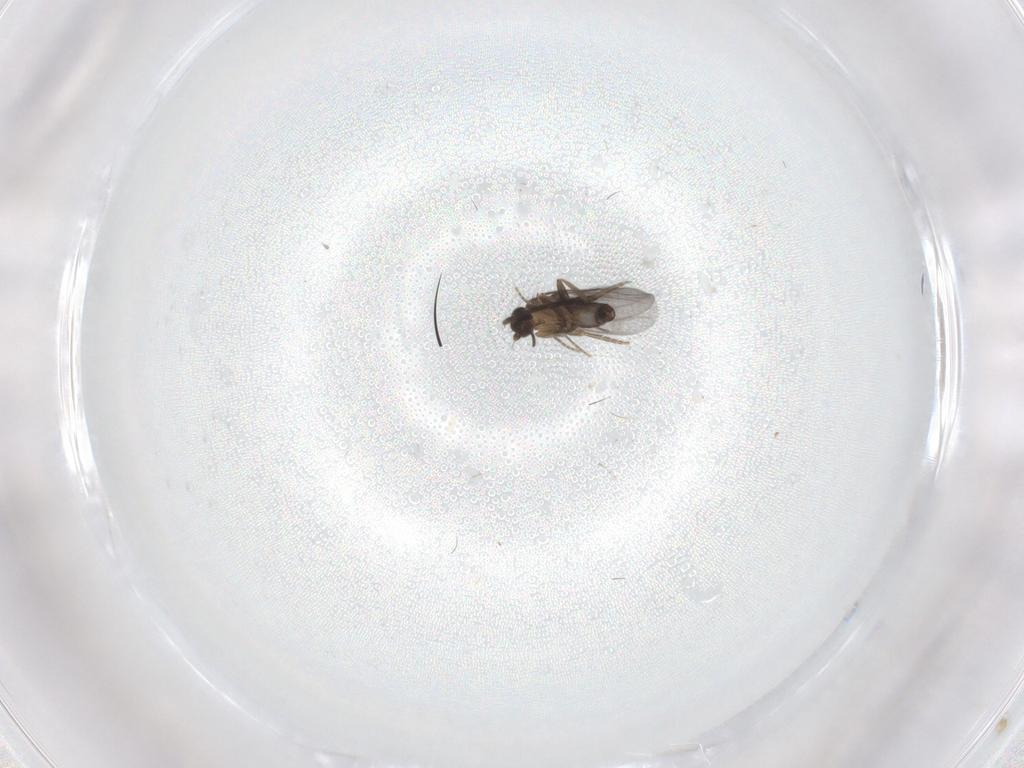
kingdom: Animalia
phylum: Arthropoda
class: Insecta
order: Diptera
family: Sciaridae
